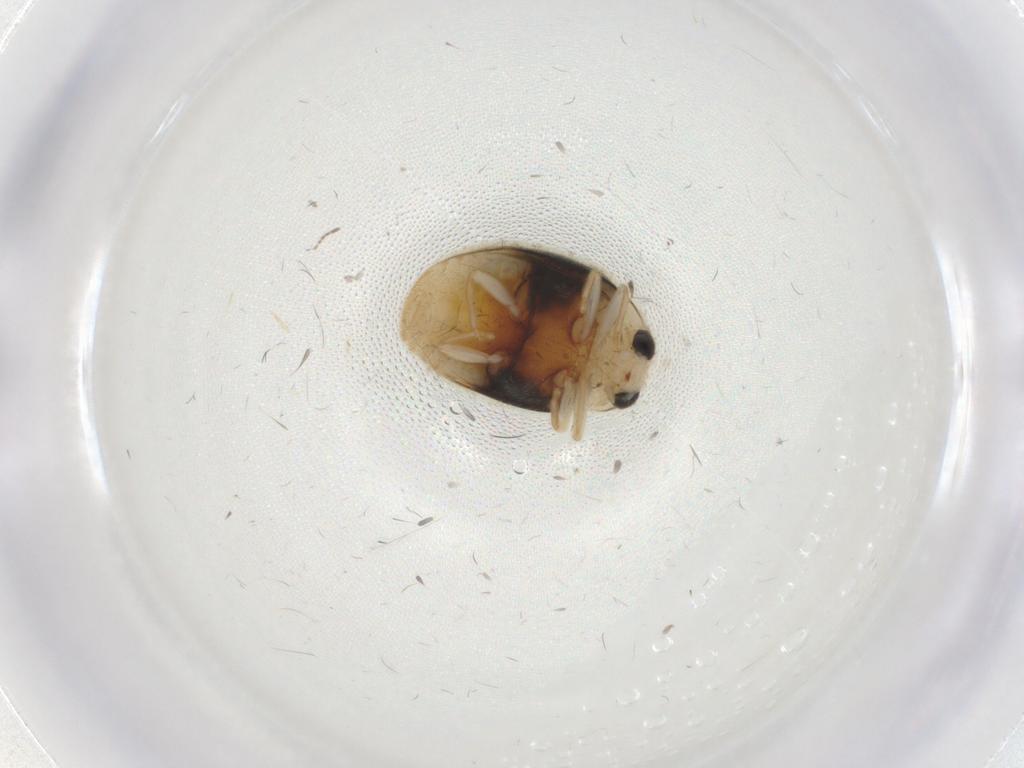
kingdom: Animalia
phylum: Arthropoda
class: Insecta
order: Coleoptera
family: Coccinellidae
